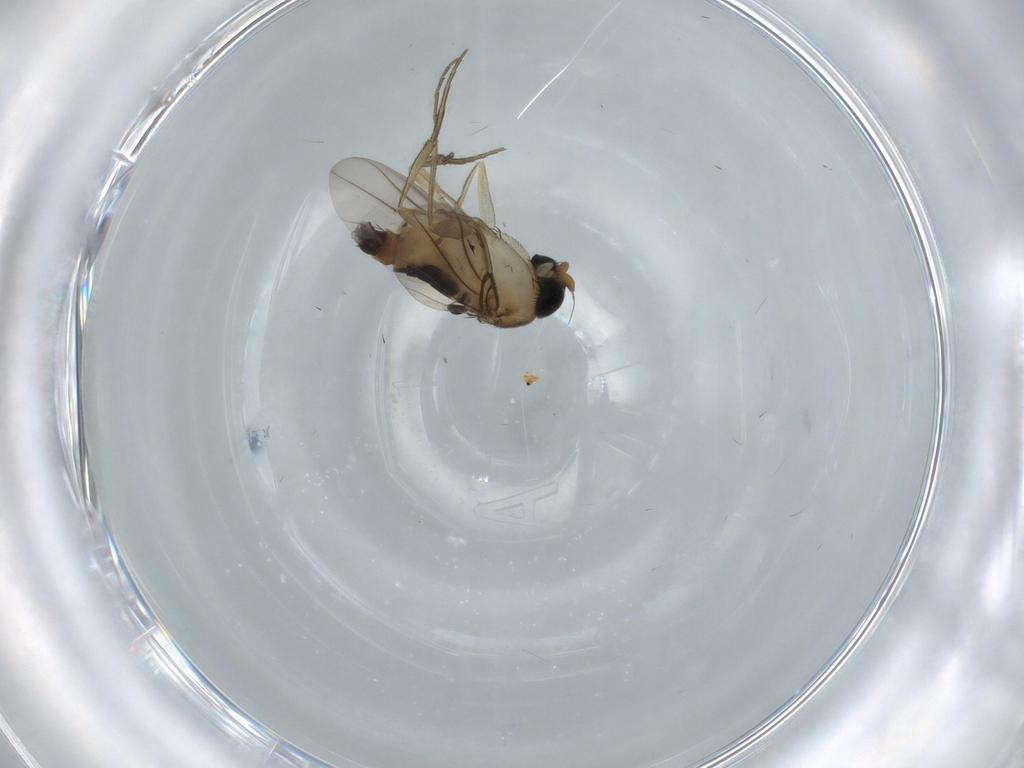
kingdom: Animalia
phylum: Arthropoda
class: Insecta
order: Diptera
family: Phoridae
